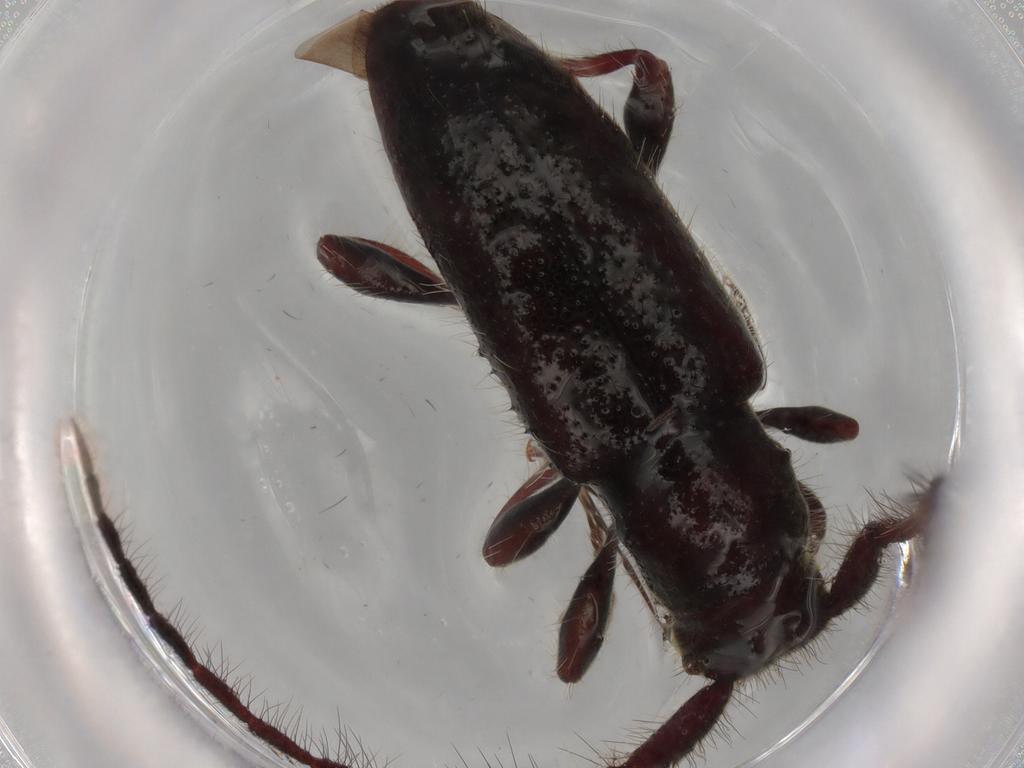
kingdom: Animalia
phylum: Arthropoda
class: Insecta
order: Coleoptera
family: Cerambycidae
